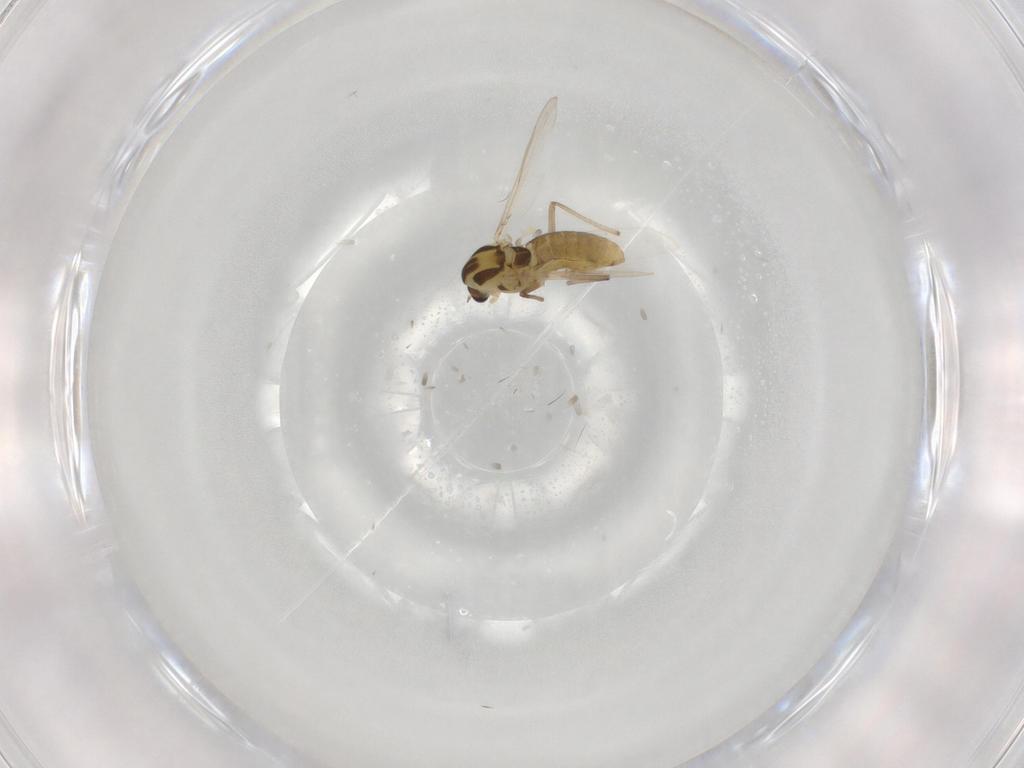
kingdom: Animalia
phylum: Arthropoda
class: Insecta
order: Diptera
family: Chironomidae
